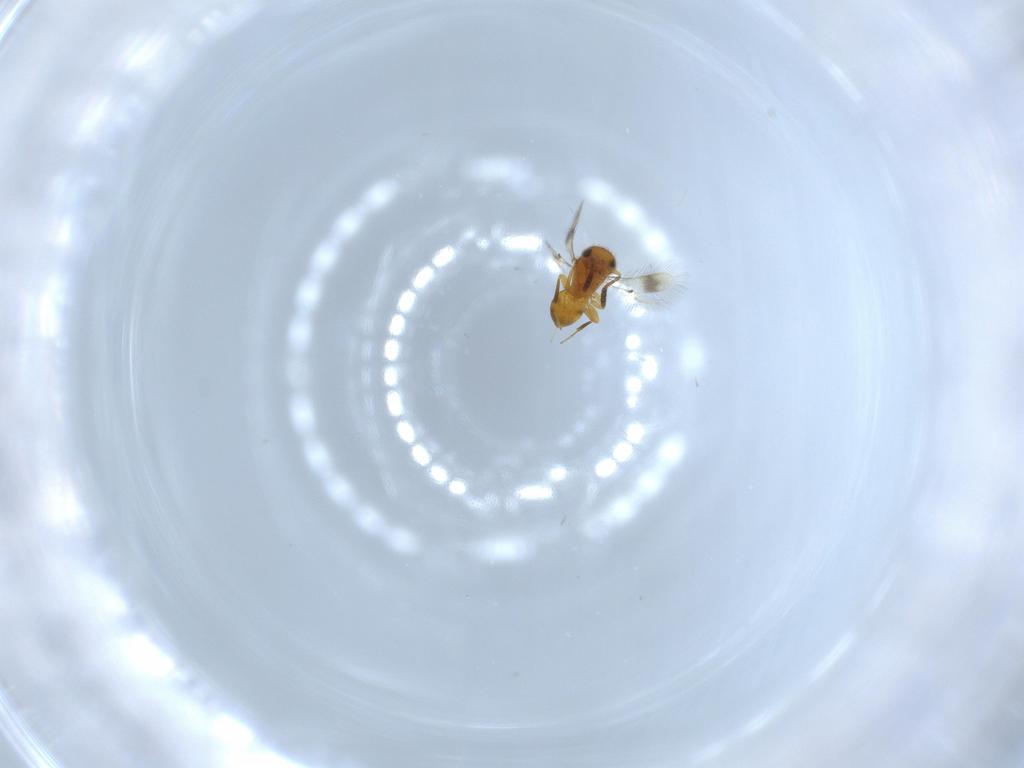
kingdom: Animalia
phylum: Arthropoda
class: Insecta
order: Hymenoptera
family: Scelionidae
